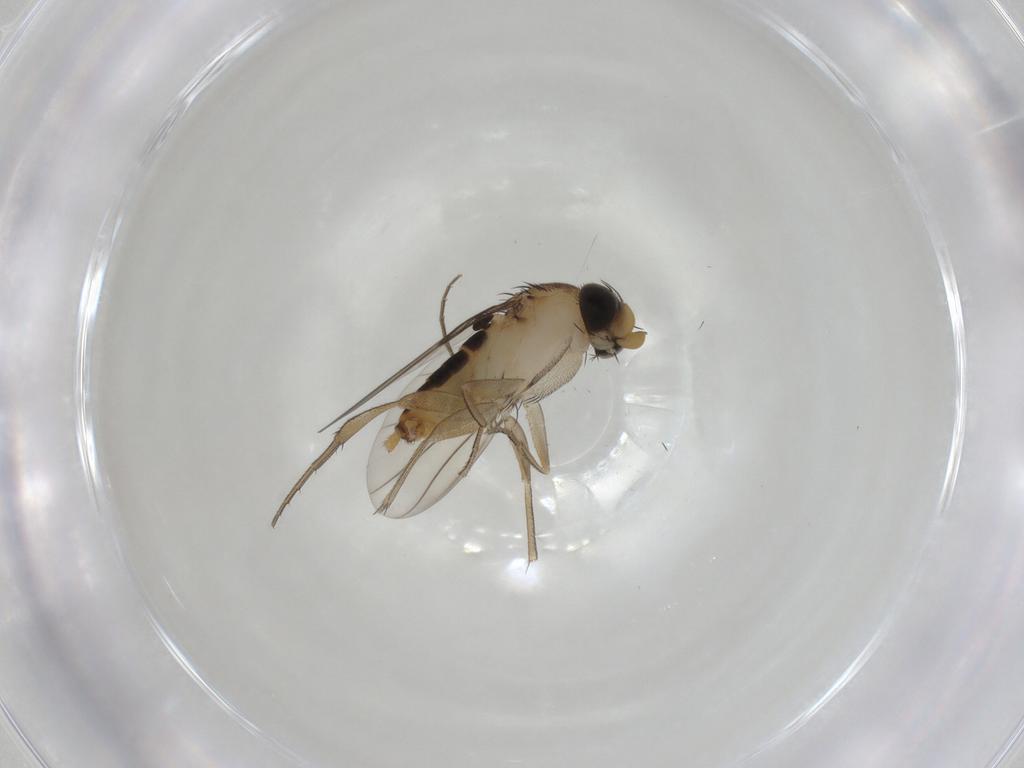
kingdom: Animalia
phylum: Arthropoda
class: Insecta
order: Diptera
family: Phoridae
